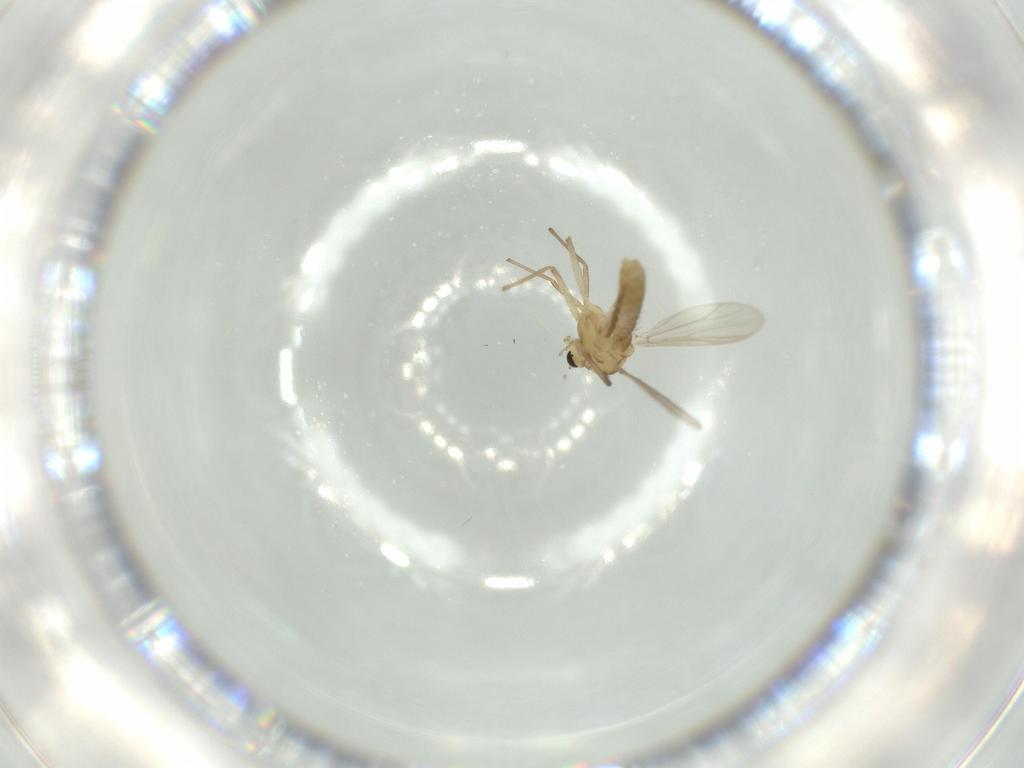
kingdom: Animalia
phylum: Arthropoda
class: Insecta
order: Diptera
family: Chironomidae
